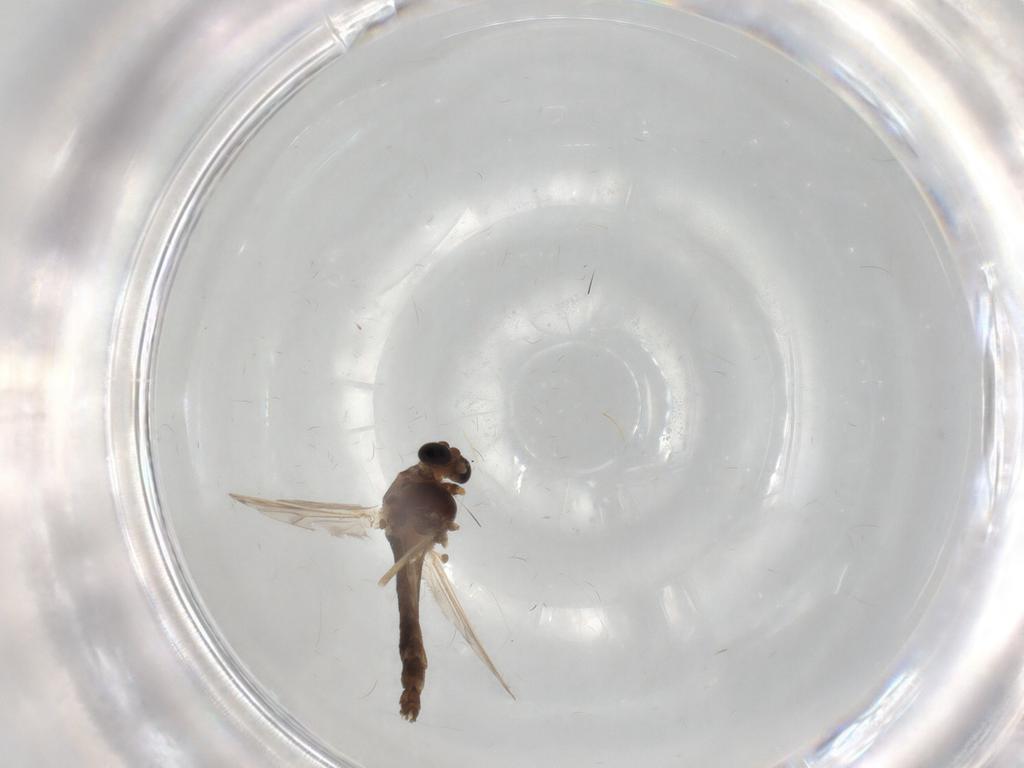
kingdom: Animalia
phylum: Arthropoda
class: Insecta
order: Diptera
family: Chironomidae
